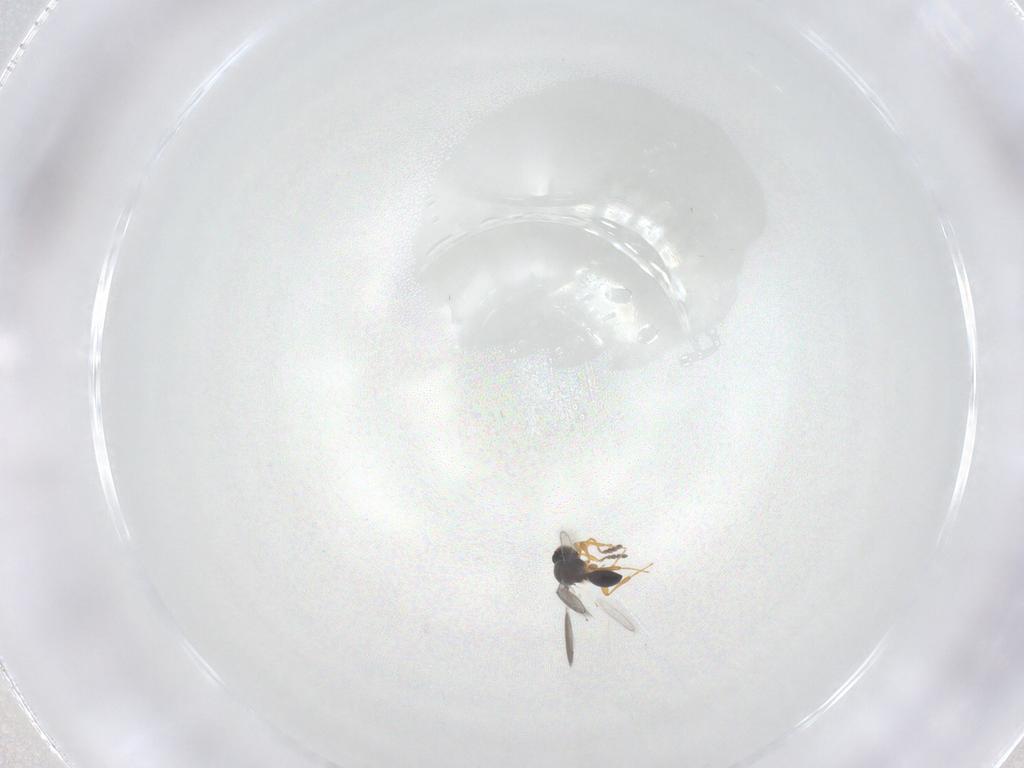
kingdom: Animalia
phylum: Arthropoda
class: Insecta
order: Hymenoptera
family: Platygastridae
